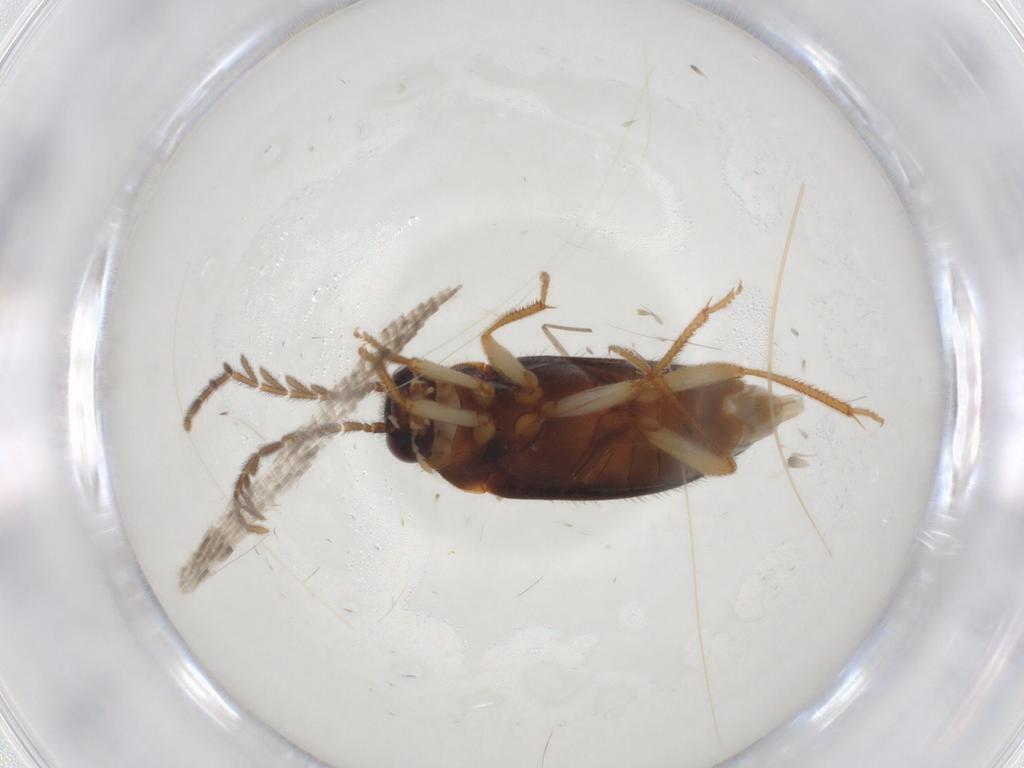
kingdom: Animalia
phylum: Arthropoda
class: Insecta
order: Coleoptera
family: Ptilodactylidae
